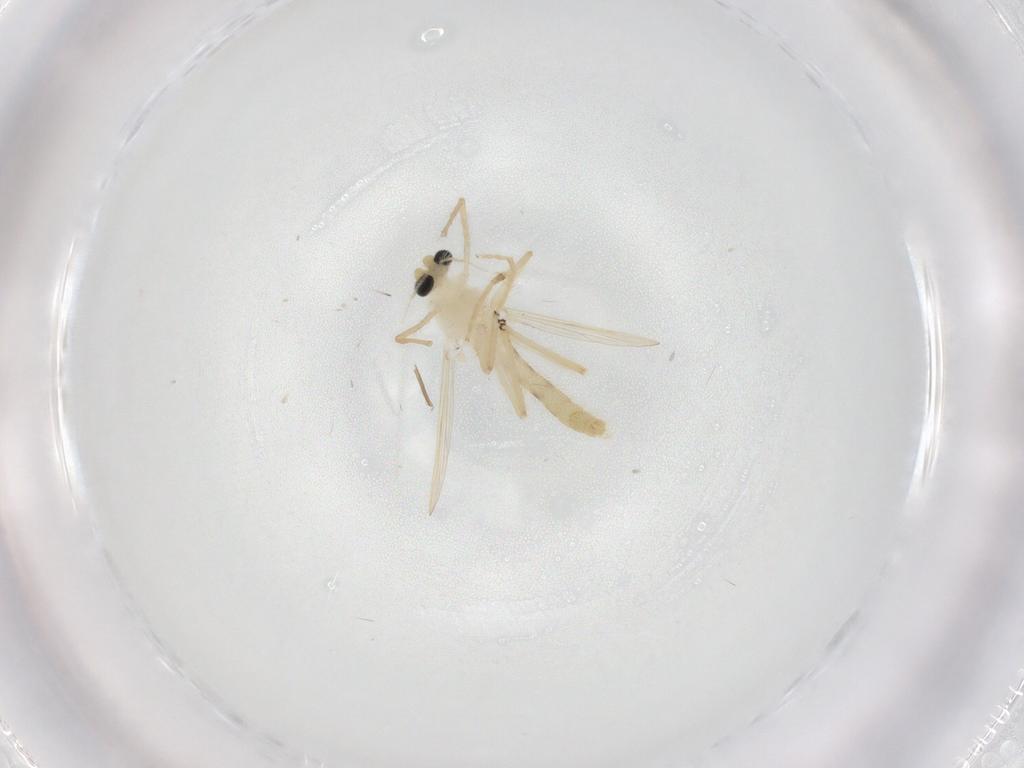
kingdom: Animalia
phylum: Arthropoda
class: Insecta
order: Diptera
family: Chironomidae
